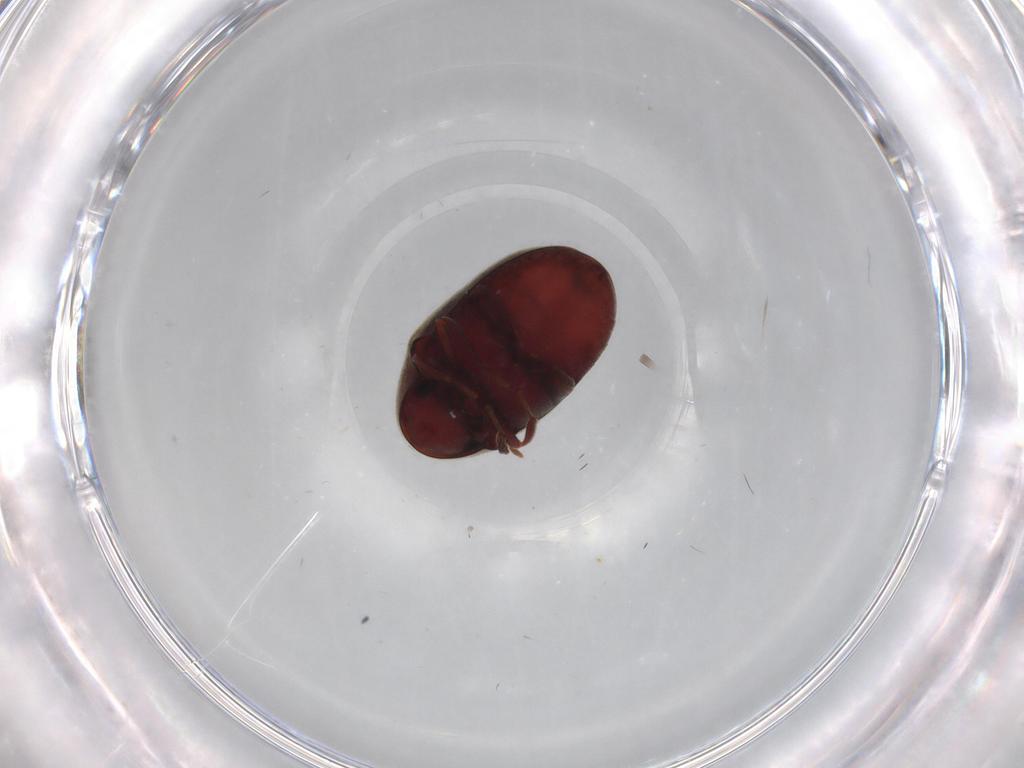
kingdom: Animalia
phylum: Arthropoda
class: Insecta
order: Coleoptera
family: Ptinidae
